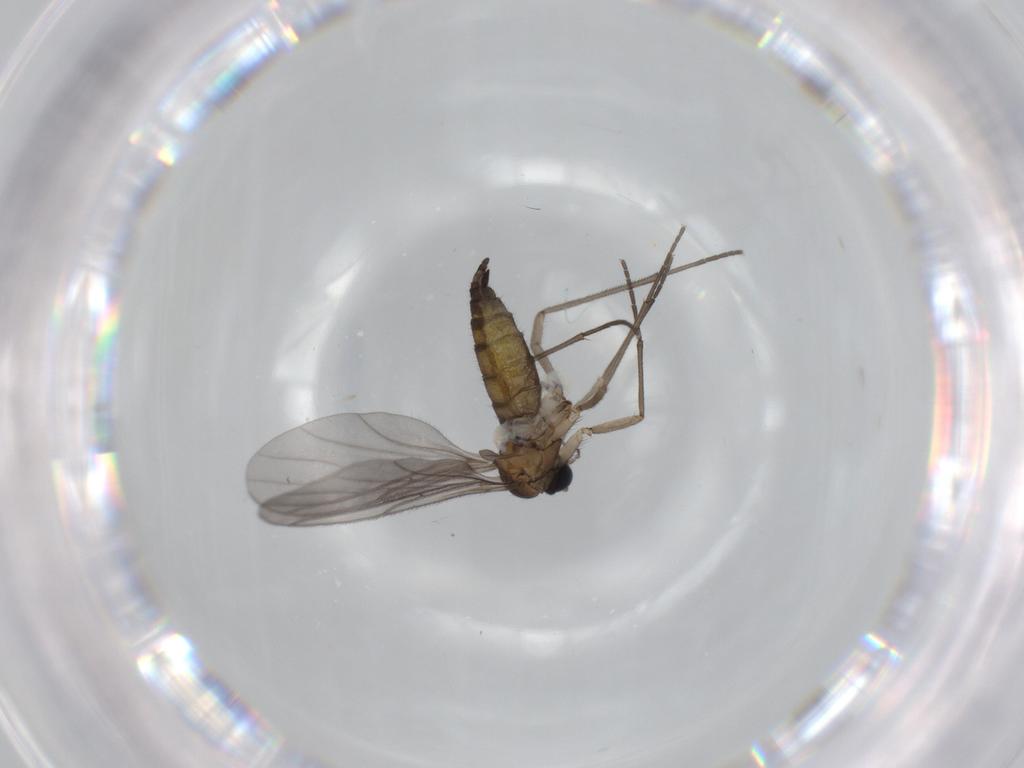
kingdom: Animalia
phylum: Arthropoda
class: Insecta
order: Diptera
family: Sciaridae
